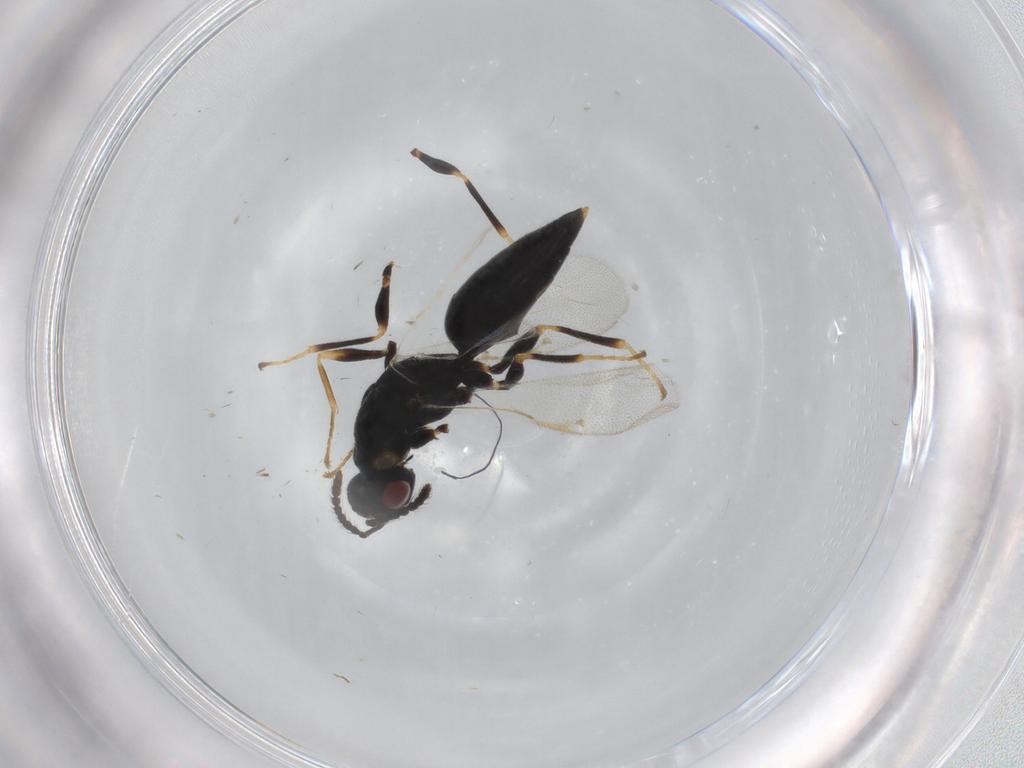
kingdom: Animalia
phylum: Arthropoda
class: Insecta
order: Hymenoptera
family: Eurytomidae
